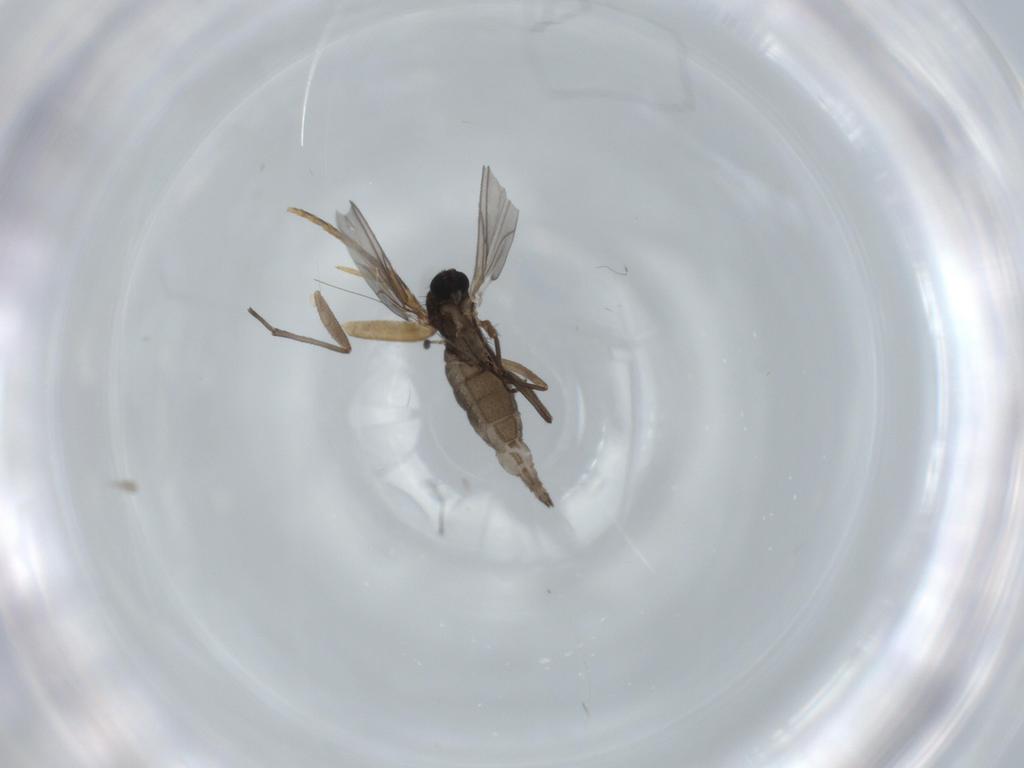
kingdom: Animalia
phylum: Arthropoda
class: Insecta
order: Diptera
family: Sciaridae
